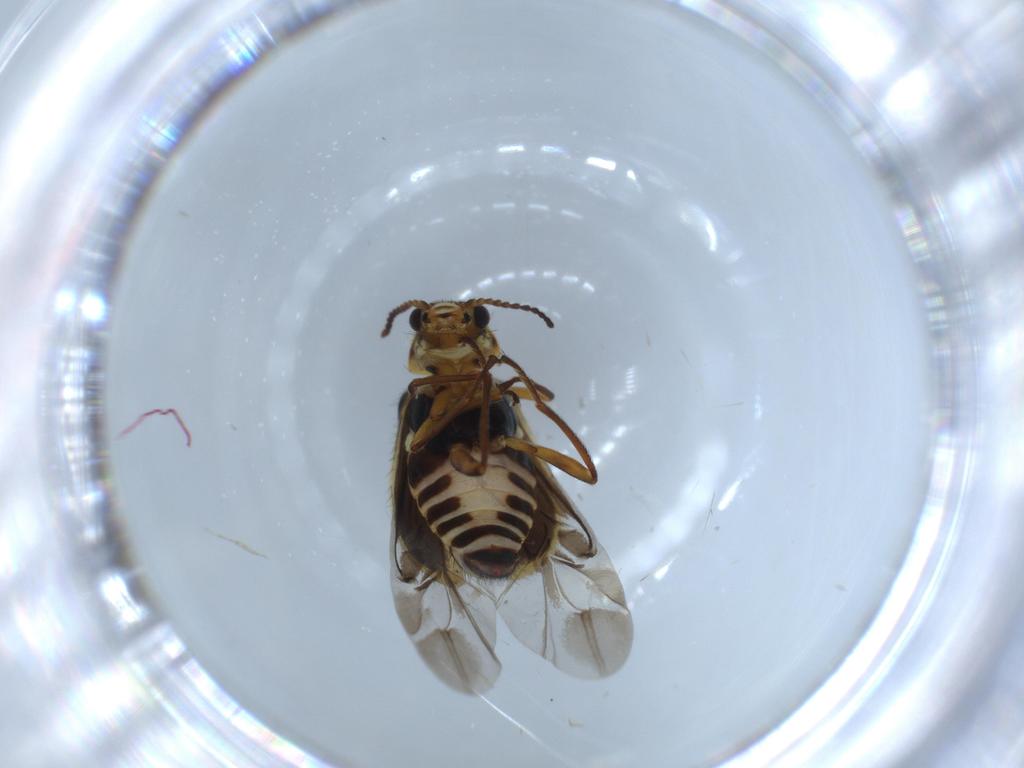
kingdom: Animalia
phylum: Arthropoda
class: Insecta
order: Coleoptera
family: Melyridae
